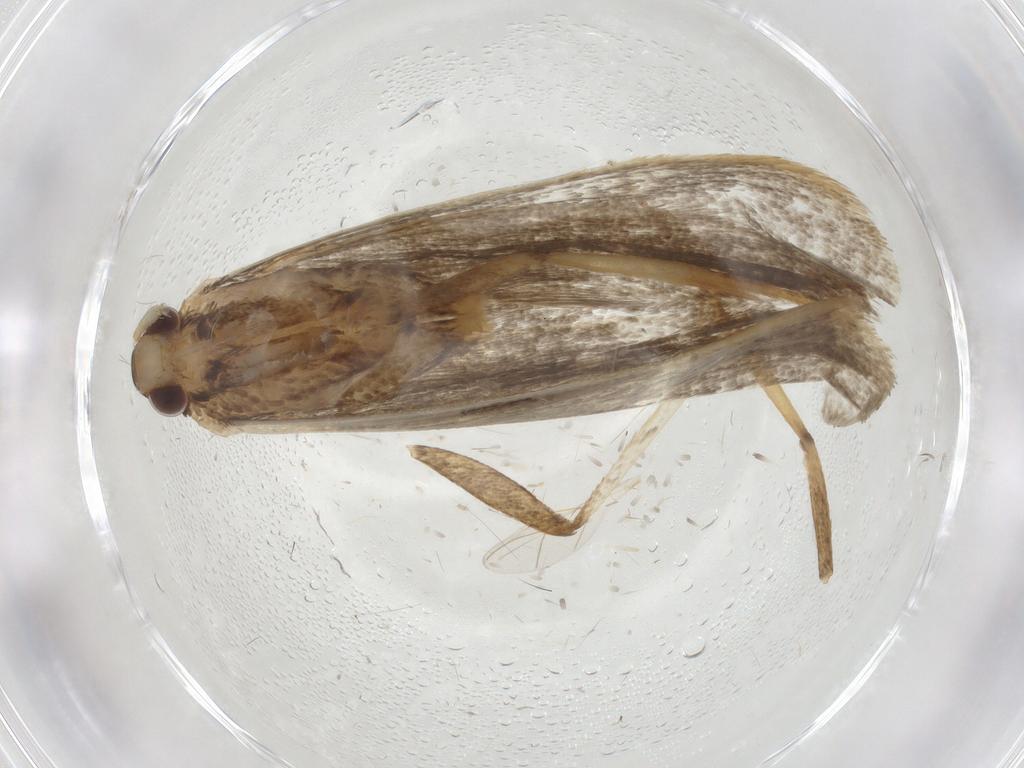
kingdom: Animalia
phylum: Arthropoda
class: Insecta
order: Lepidoptera
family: Lecithoceridae
